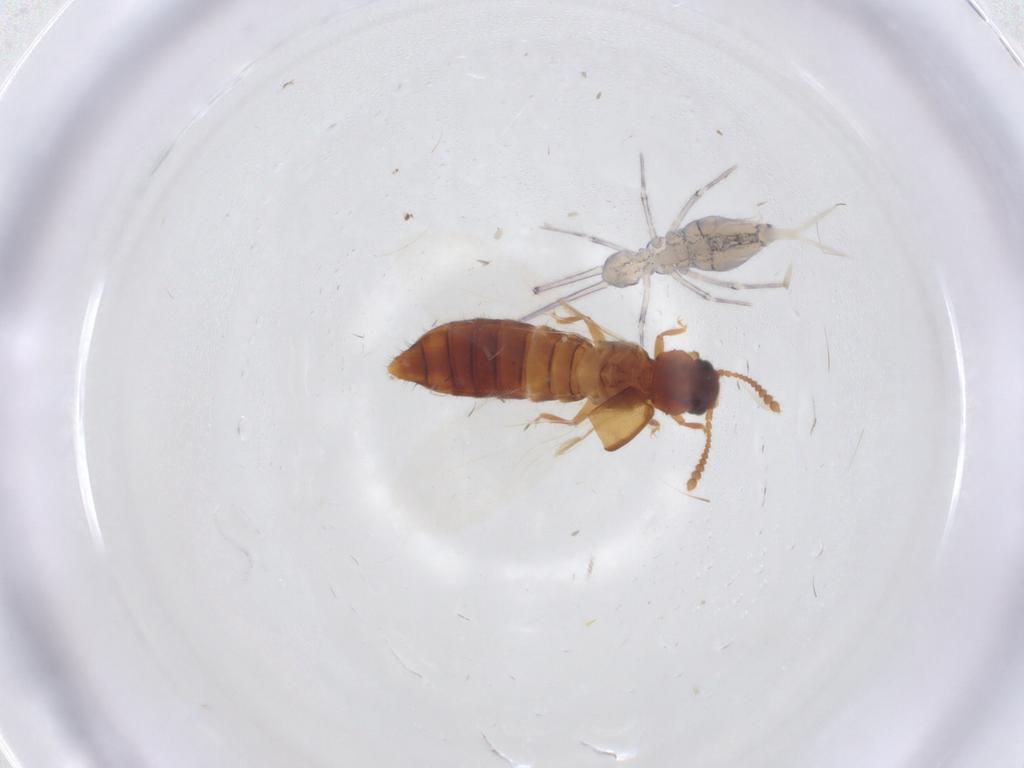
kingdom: Animalia
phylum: Arthropoda
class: Insecta
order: Coleoptera
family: Staphylinidae
